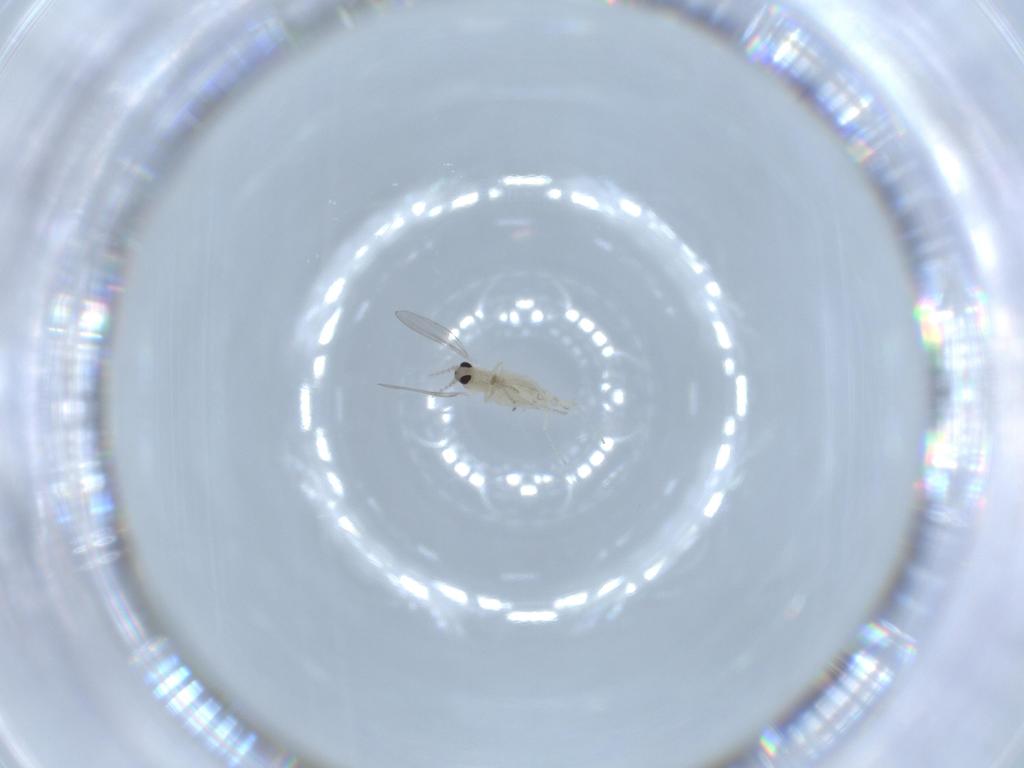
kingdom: Animalia
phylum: Arthropoda
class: Insecta
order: Diptera
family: Cecidomyiidae
